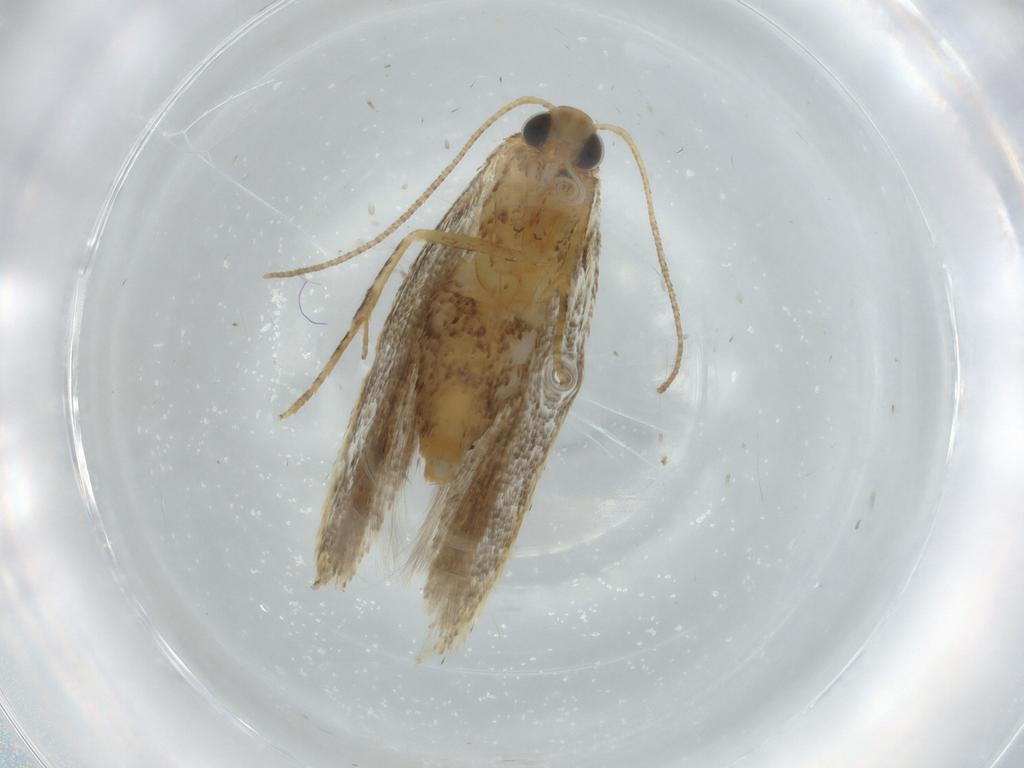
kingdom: Animalia
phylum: Arthropoda
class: Insecta
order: Lepidoptera
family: Gelechiidae
